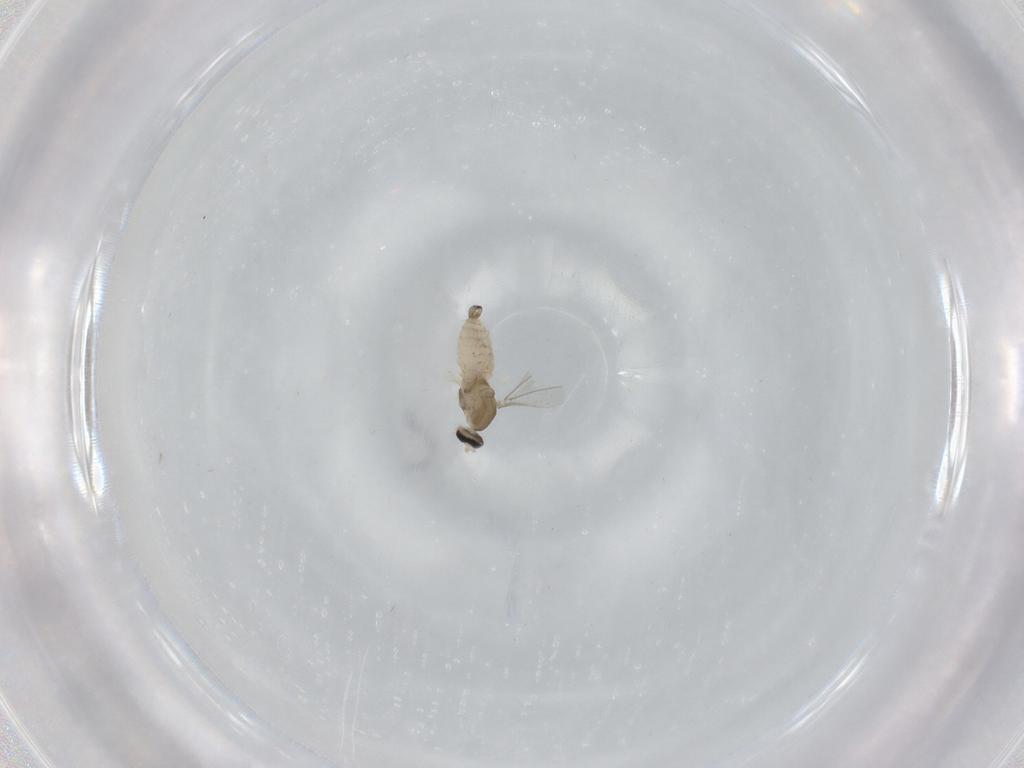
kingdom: Animalia
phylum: Arthropoda
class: Insecta
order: Diptera
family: Cecidomyiidae
